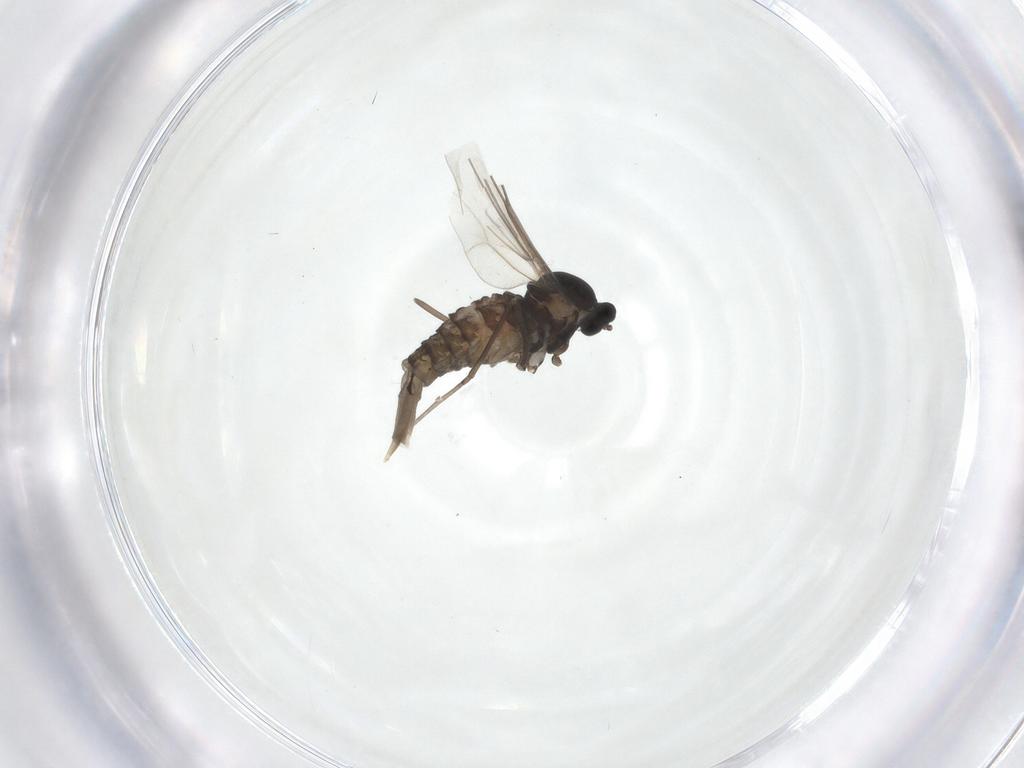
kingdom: Animalia
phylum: Arthropoda
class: Insecta
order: Diptera
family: Cecidomyiidae
